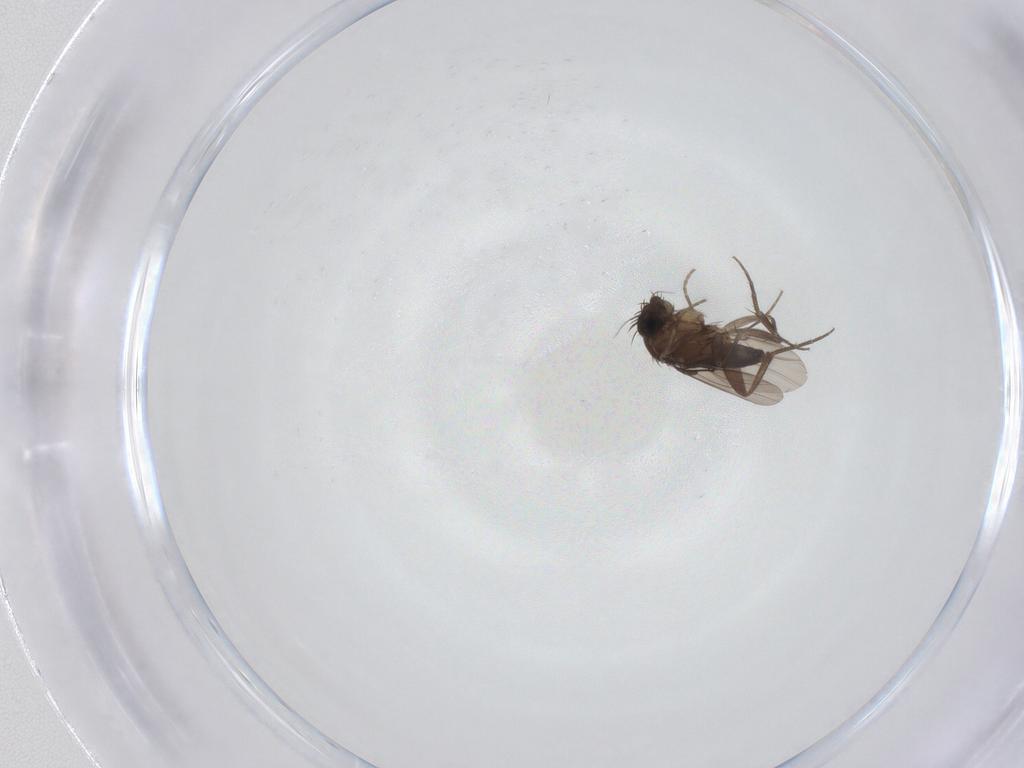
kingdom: Animalia
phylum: Arthropoda
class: Insecta
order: Diptera
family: Phoridae
